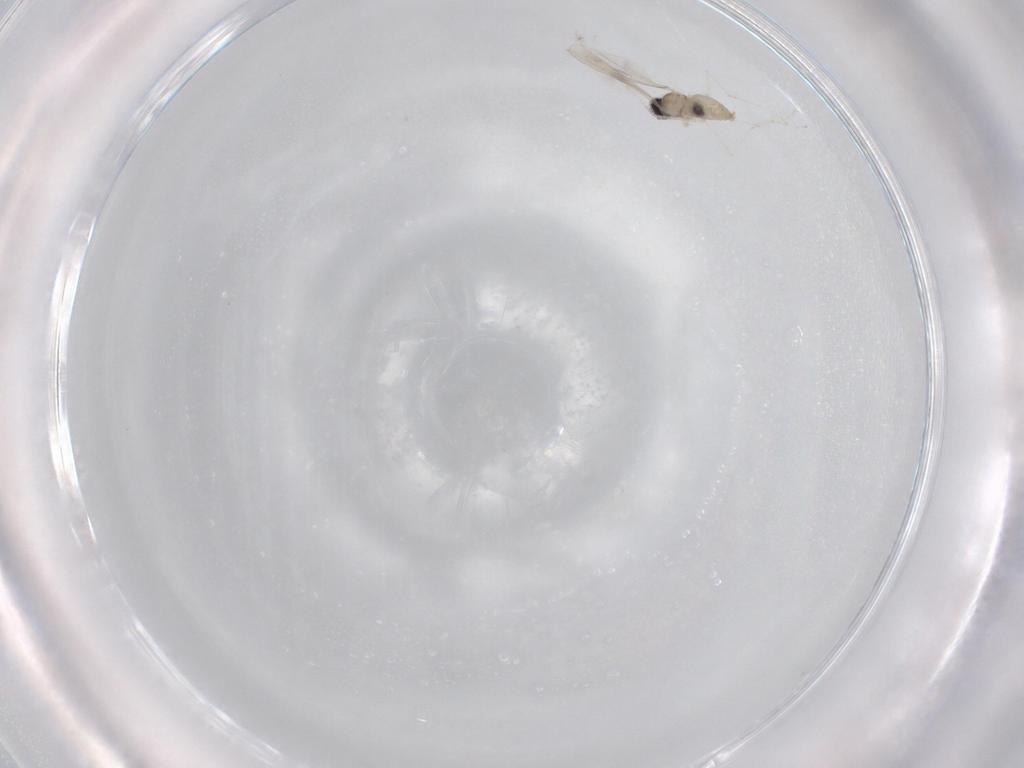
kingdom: Animalia
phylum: Arthropoda
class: Insecta
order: Diptera
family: Cecidomyiidae
